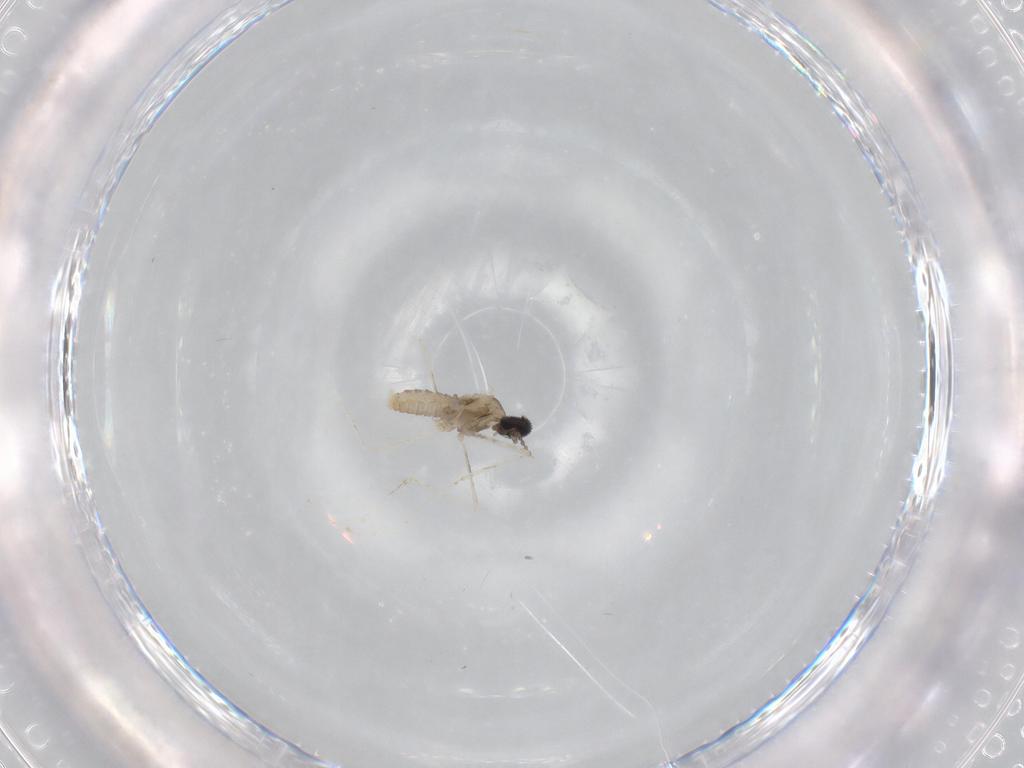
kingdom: Animalia
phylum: Arthropoda
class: Insecta
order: Diptera
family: Cecidomyiidae
